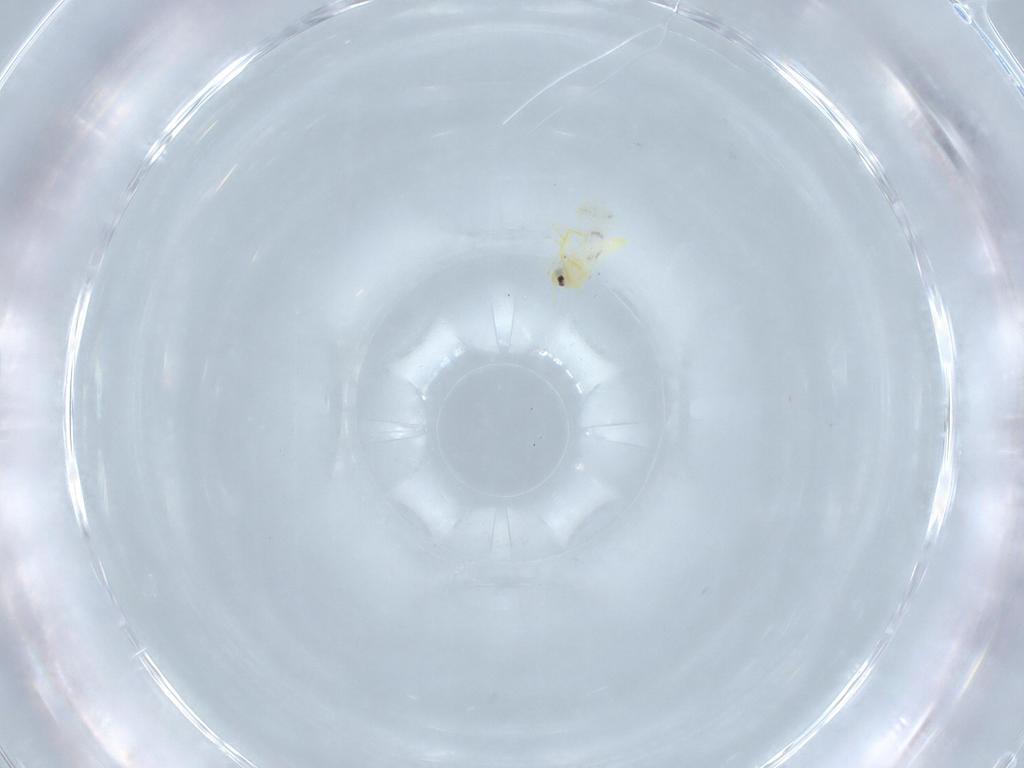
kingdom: Animalia
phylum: Arthropoda
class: Insecta
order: Hemiptera
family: Aleyrodidae
